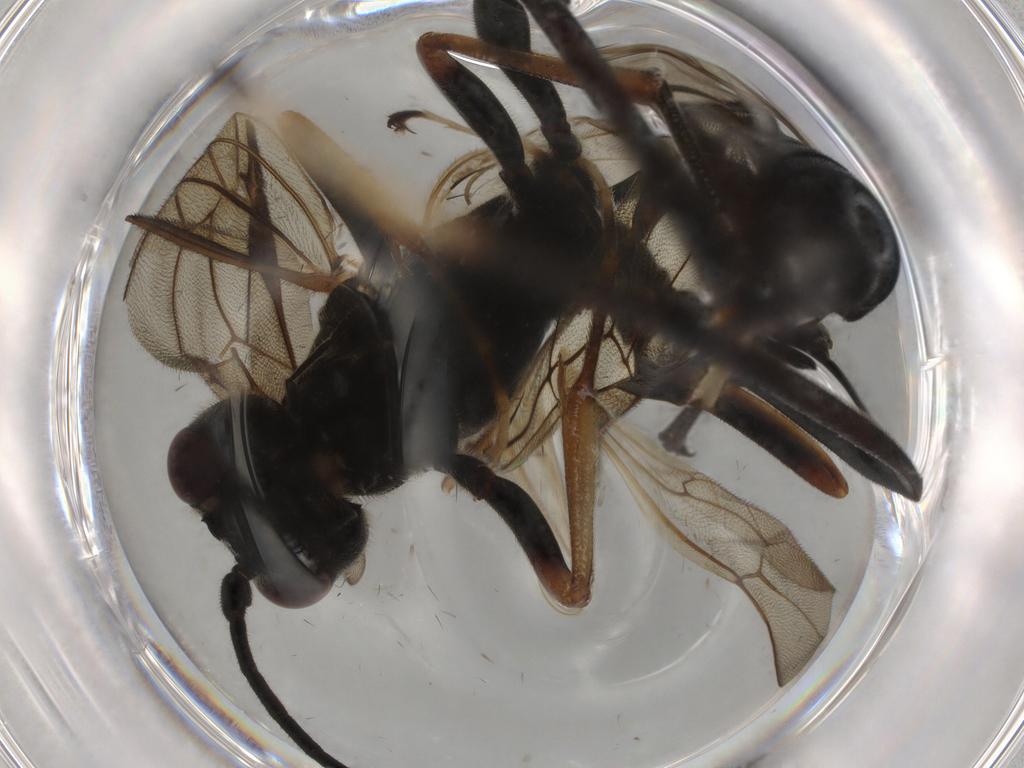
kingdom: Animalia
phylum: Arthropoda
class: Insecta
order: Hymenoptera
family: Ichneumonidae
